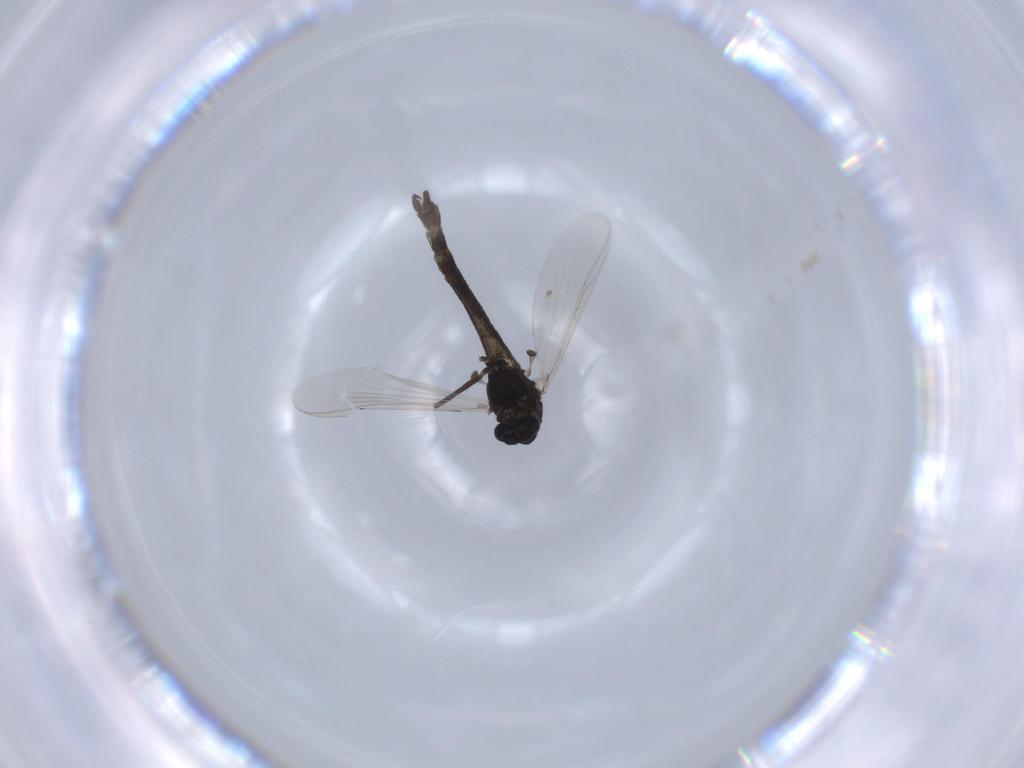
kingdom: Animalia
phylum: Arthropoda
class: Insecta
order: Diptera
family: Chironomidae
